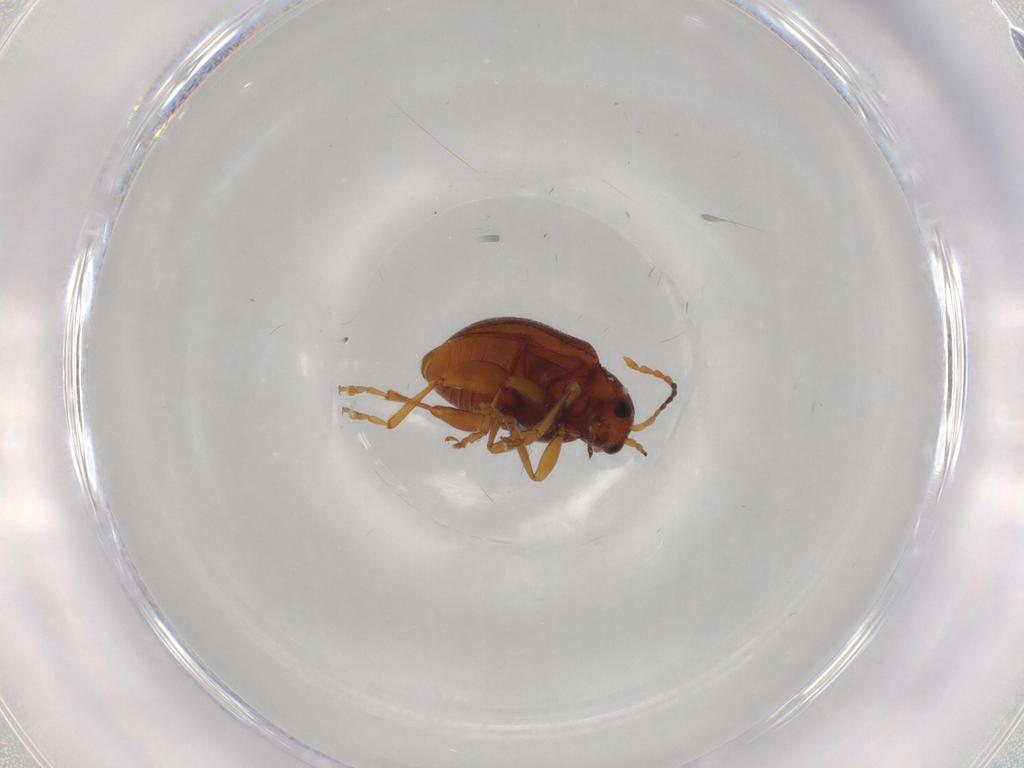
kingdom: Animalia
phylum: Arthropoda
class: Insecta
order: Coleoptera
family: Chrysomelidae
